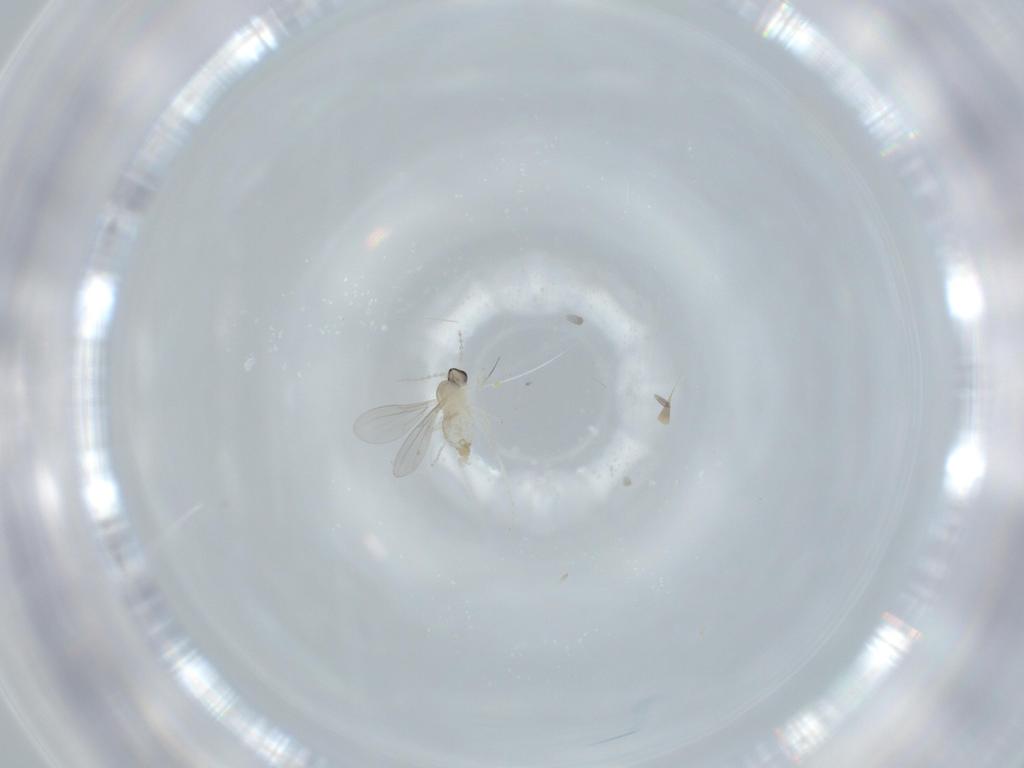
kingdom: Animalia
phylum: Arthropoda
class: Insecta
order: Diptera
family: Cecidomyiidae
